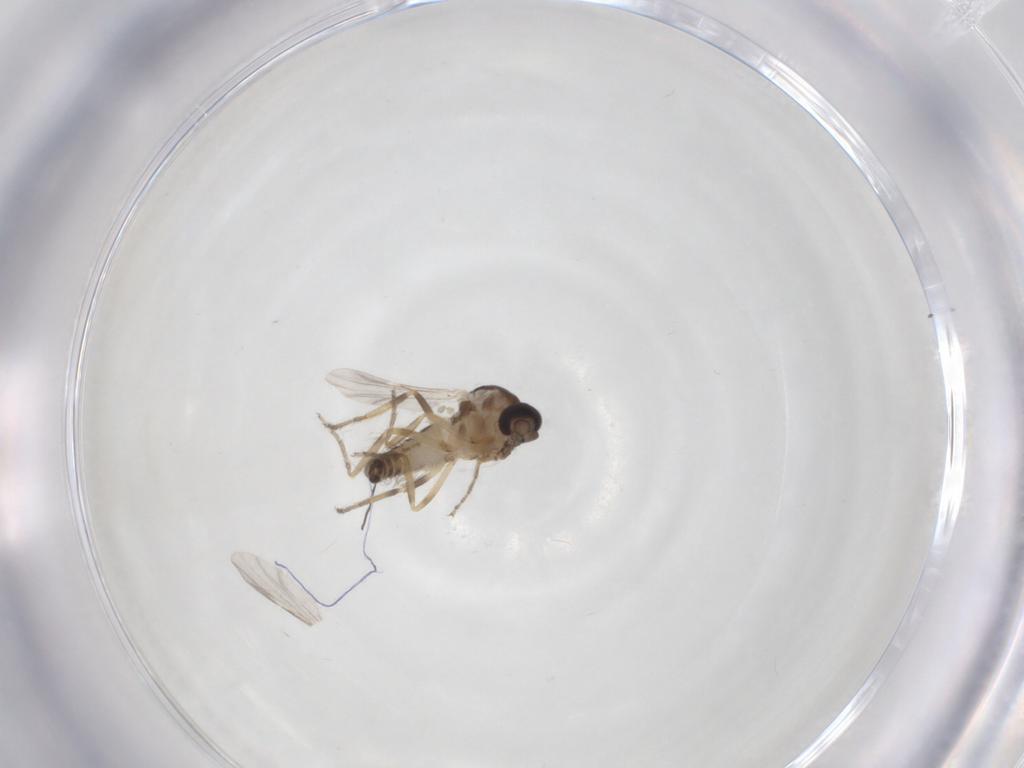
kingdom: Animalia
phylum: Arthropoda
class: Insecta
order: Diptera
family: Ceratopogonidae
